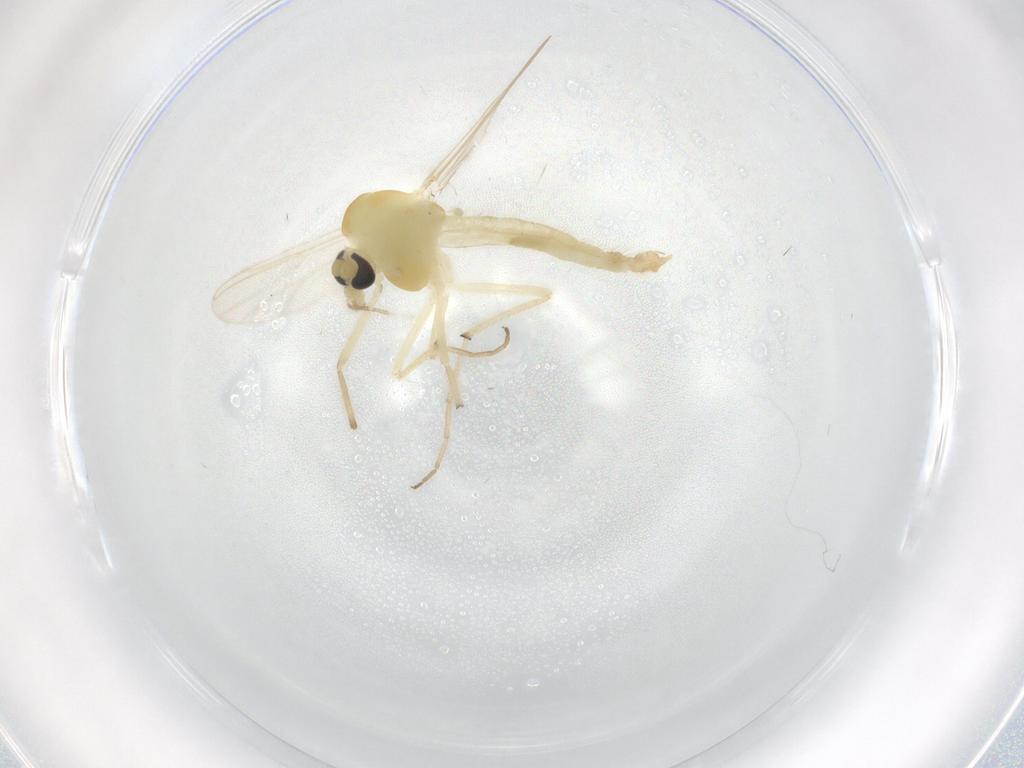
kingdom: Animalia
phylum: Arthropoda
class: Insecta
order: Diptera
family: Chironomidae
